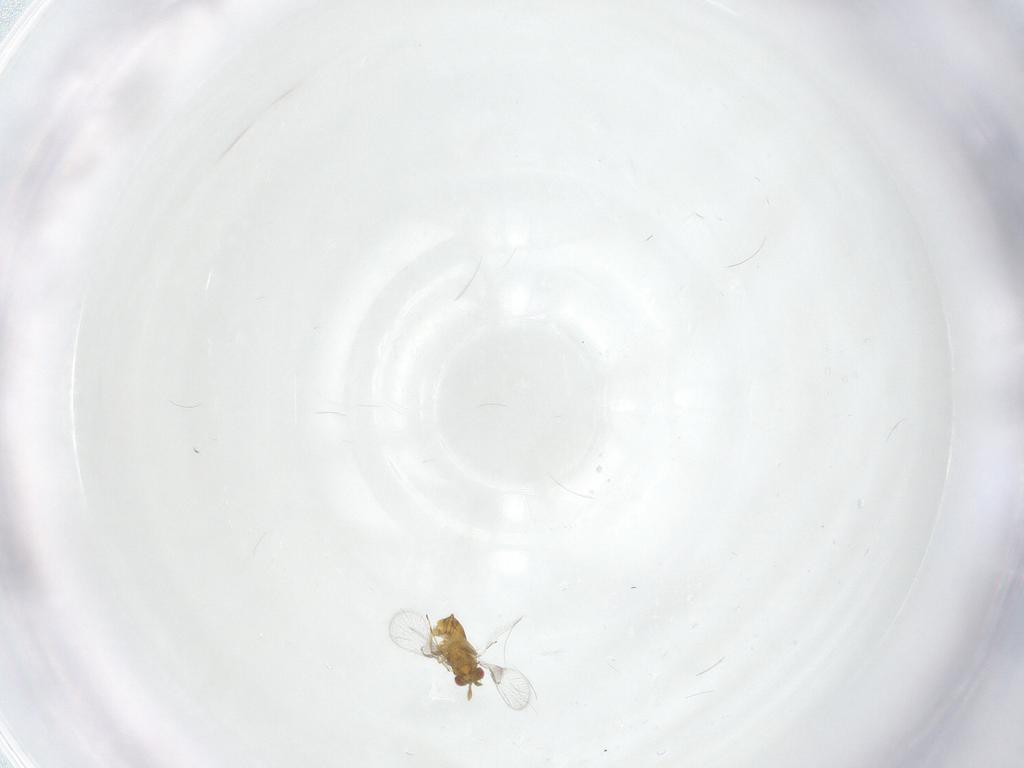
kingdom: Animalia
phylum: Arthropoda
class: Insecta
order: Hymenoptera
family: Trichogrammatidae
